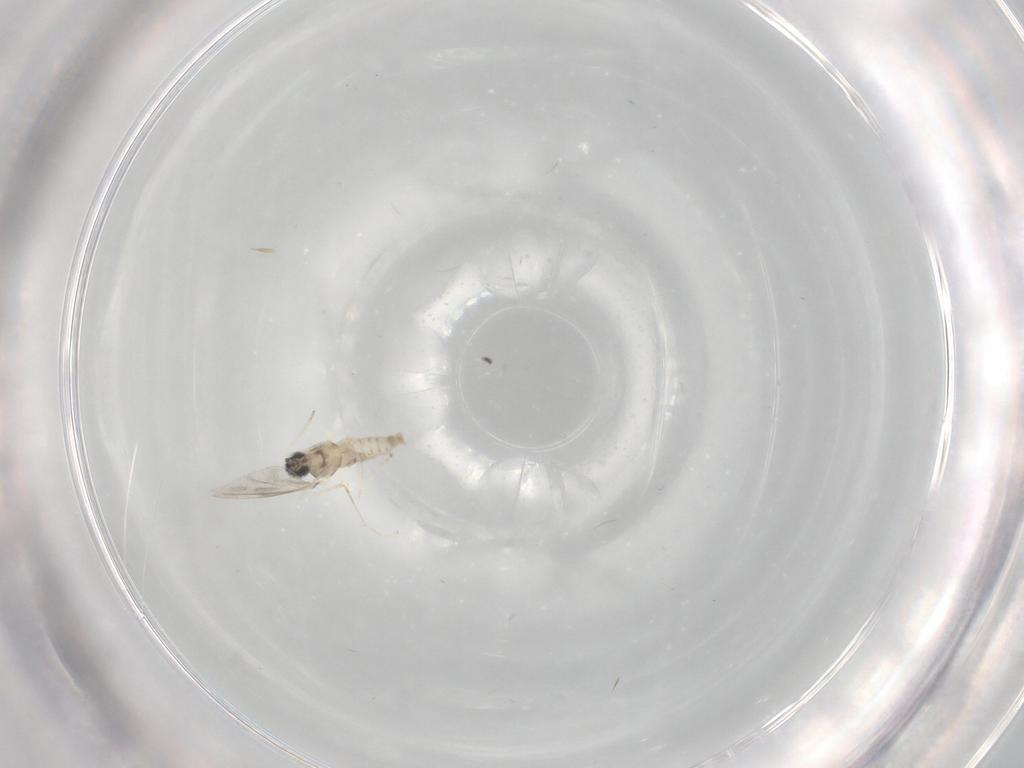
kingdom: Animalia
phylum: Arthropoda
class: Insecta
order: Diptera
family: Cecidomyiidae
